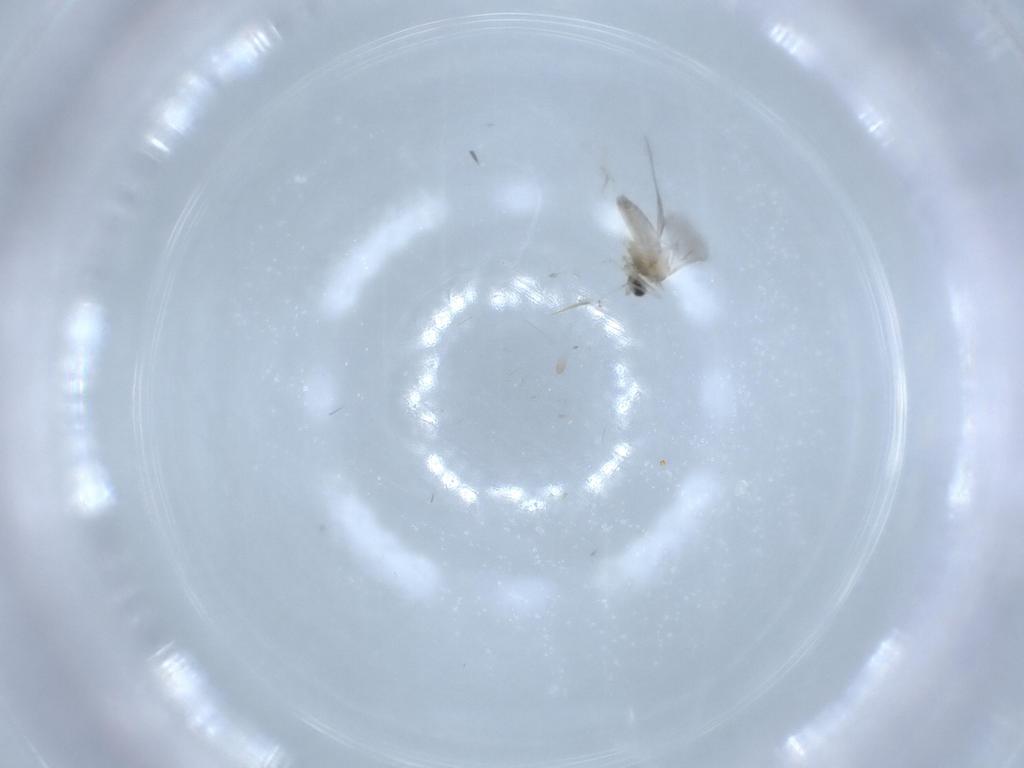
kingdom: Animalia
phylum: Arthropoda
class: Insecta
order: Diptera
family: Cecidomyiidae
